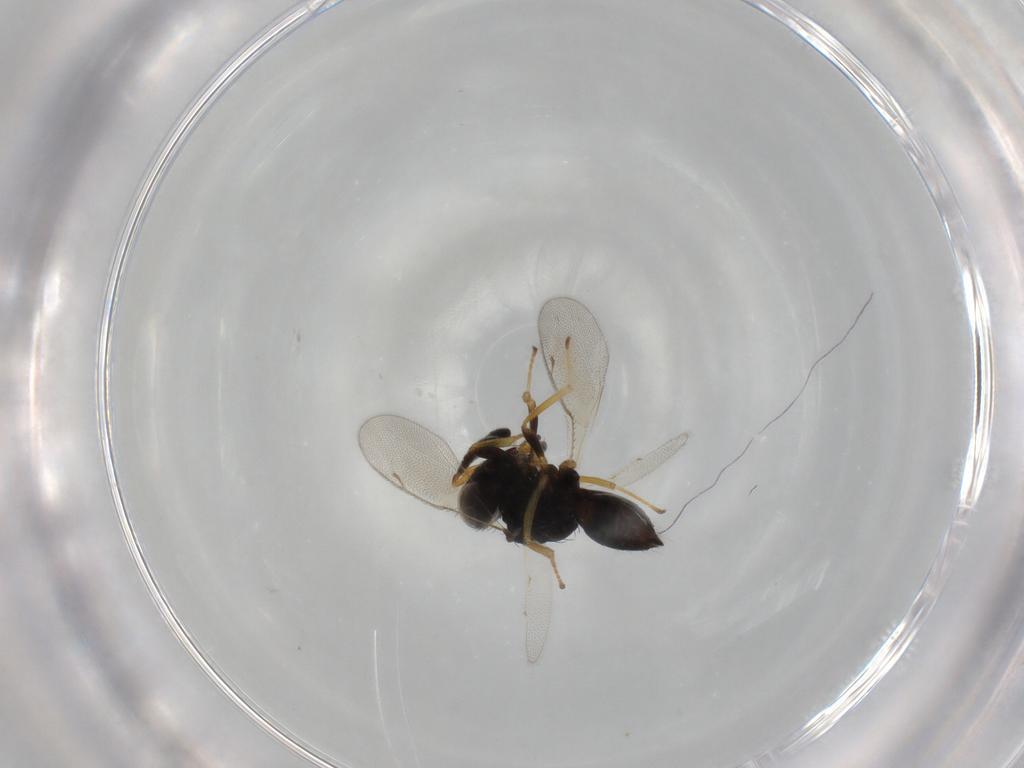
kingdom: Animalia
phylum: Arthropoda
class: Insecta
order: Hymenoptera
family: Pteromalidae
